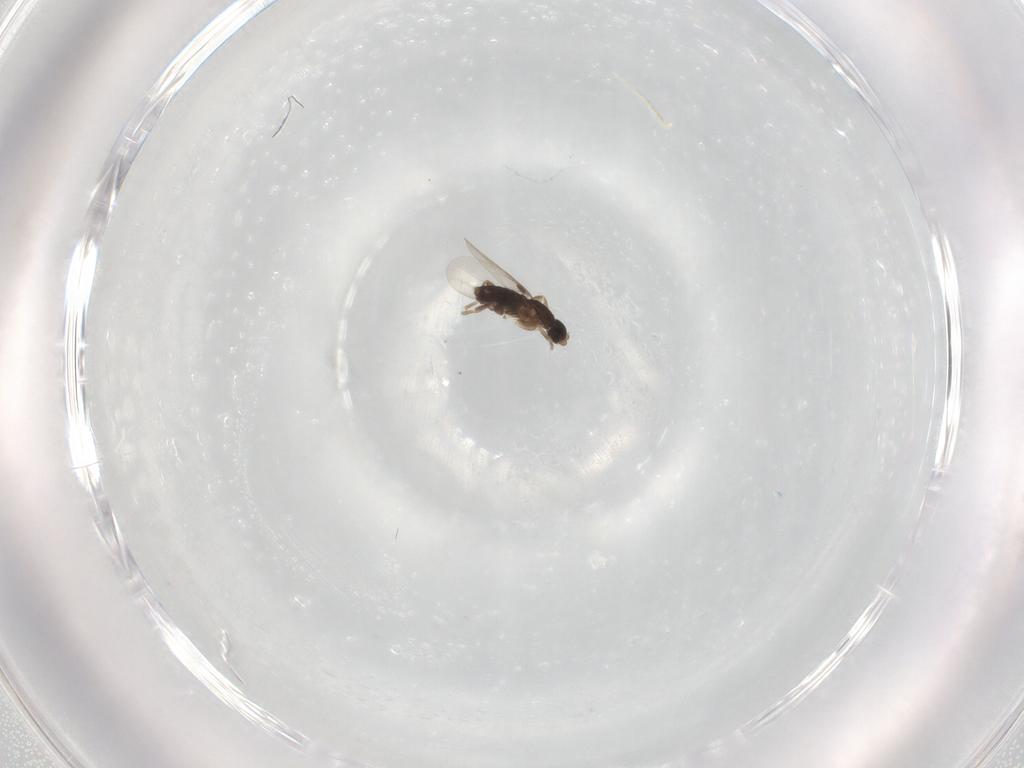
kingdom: Animalia
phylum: Arthropoda
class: Insecta
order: Diptera
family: Phoridae
